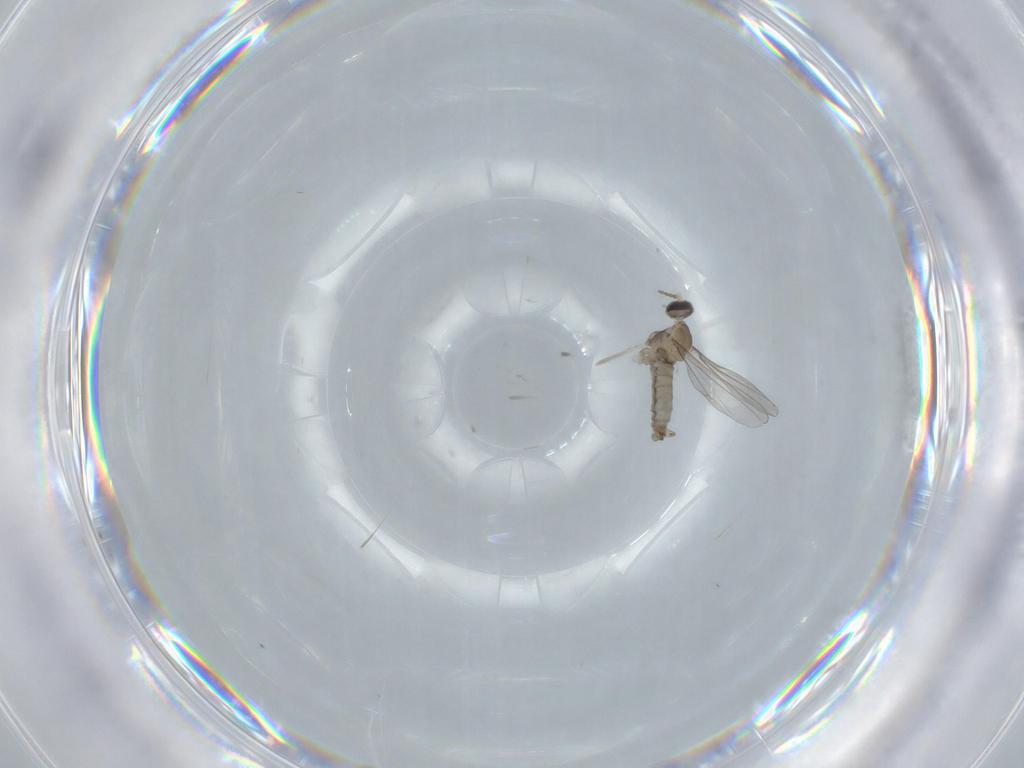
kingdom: Animalia
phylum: Arthropoda
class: Insecta
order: Diptera
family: Cecidomyiidae
